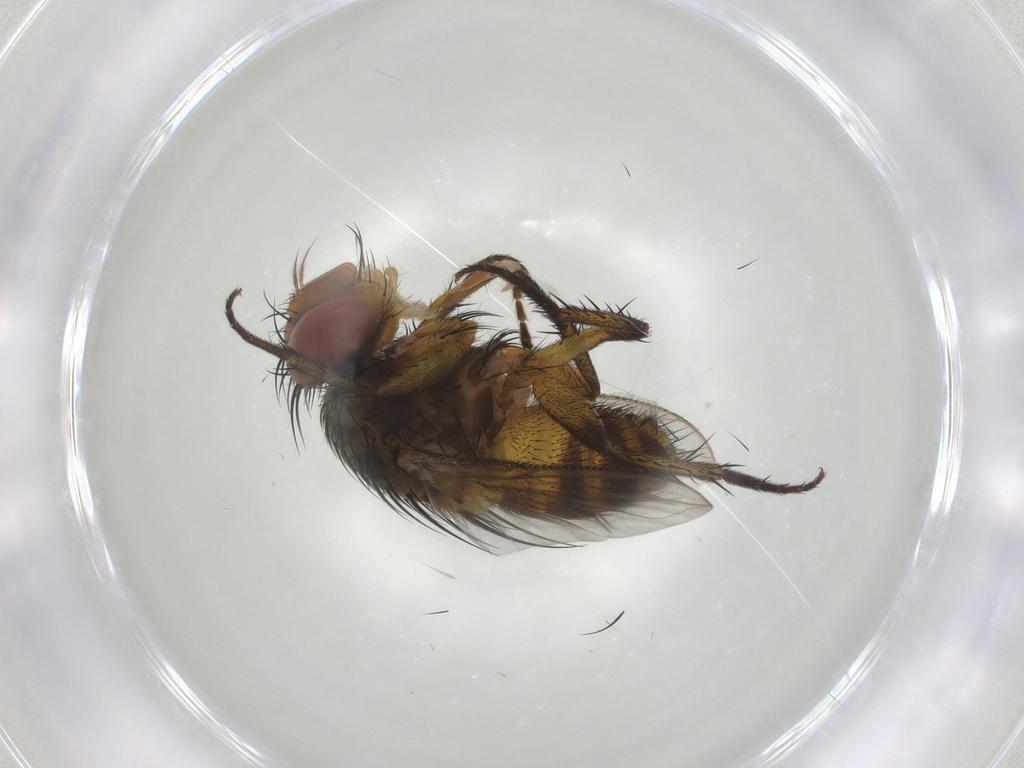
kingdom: Animalia
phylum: Arthropoda
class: Insecta
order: Diptera
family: Tachinidae
